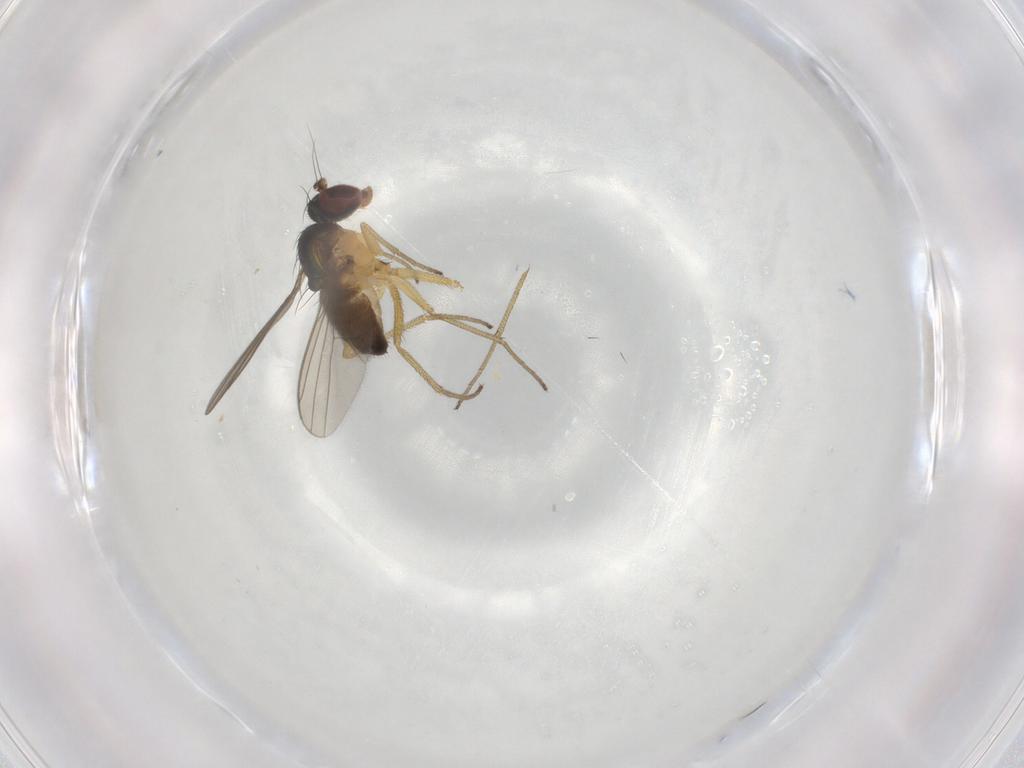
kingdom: Animalia
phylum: Arthropoda
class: Insecta
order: Diptera
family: Dolichopodidae
